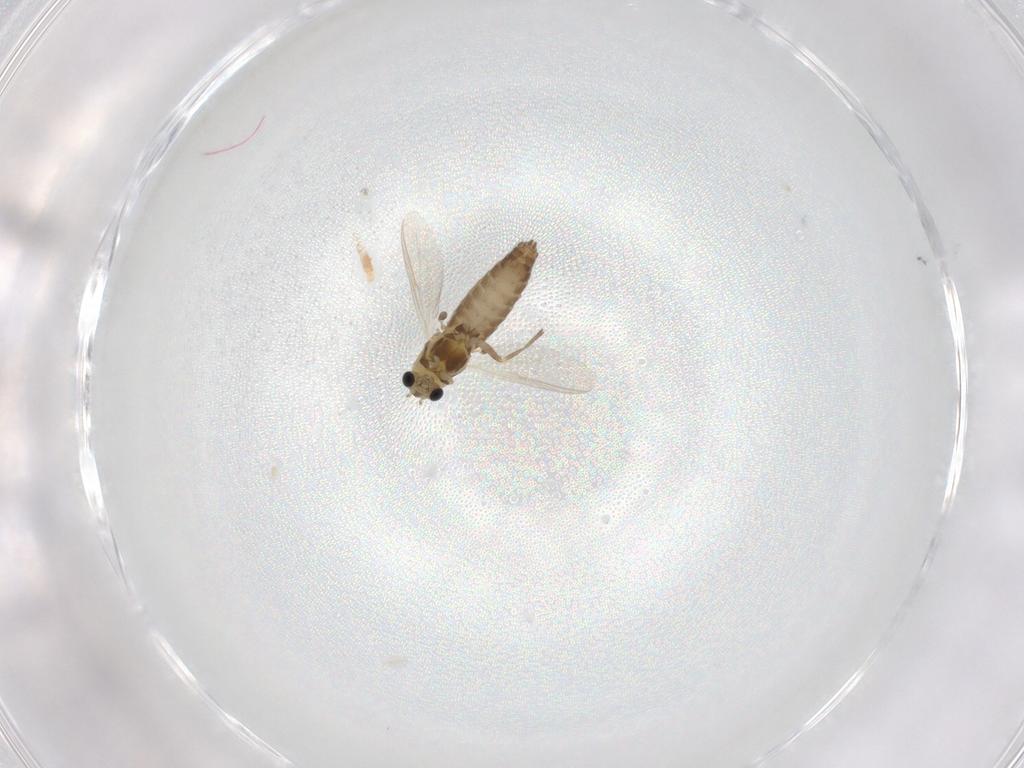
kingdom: Animalia
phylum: Arthropoda
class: Insecta
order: Diptera
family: Chironomidae
